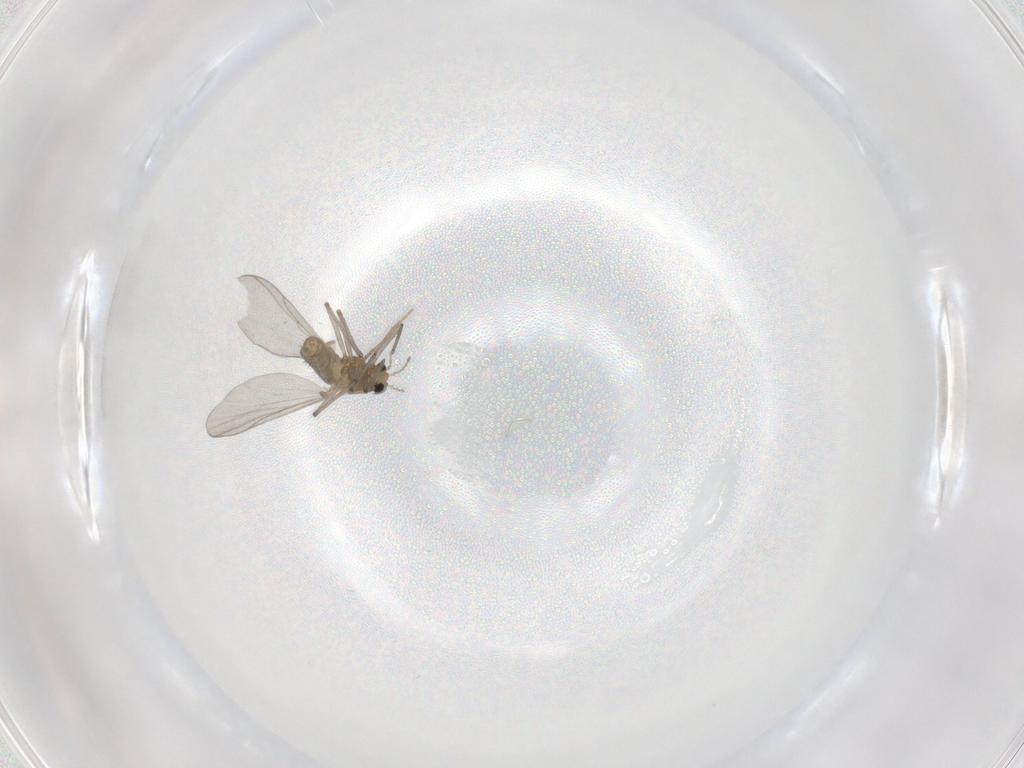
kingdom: Animalia
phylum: Arthropoda
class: Insecta
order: Diptera
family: Chironomidae
